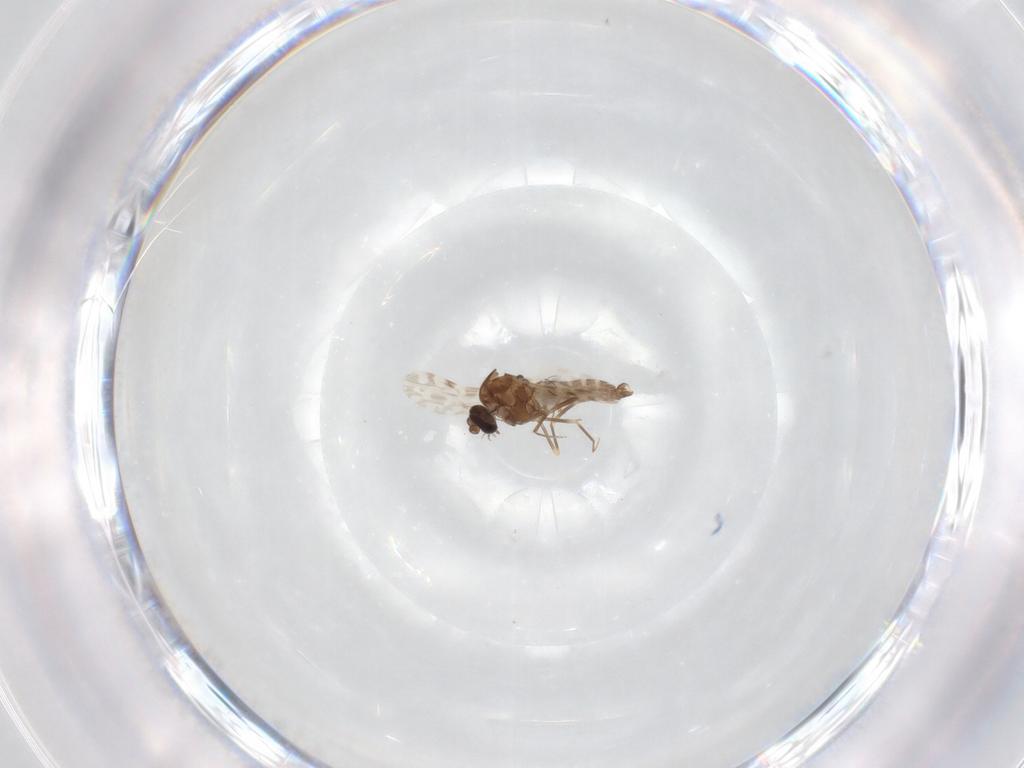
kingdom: Animalia
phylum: Arthropoda
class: Insecta
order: Diptera
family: Ceratopogonidae
